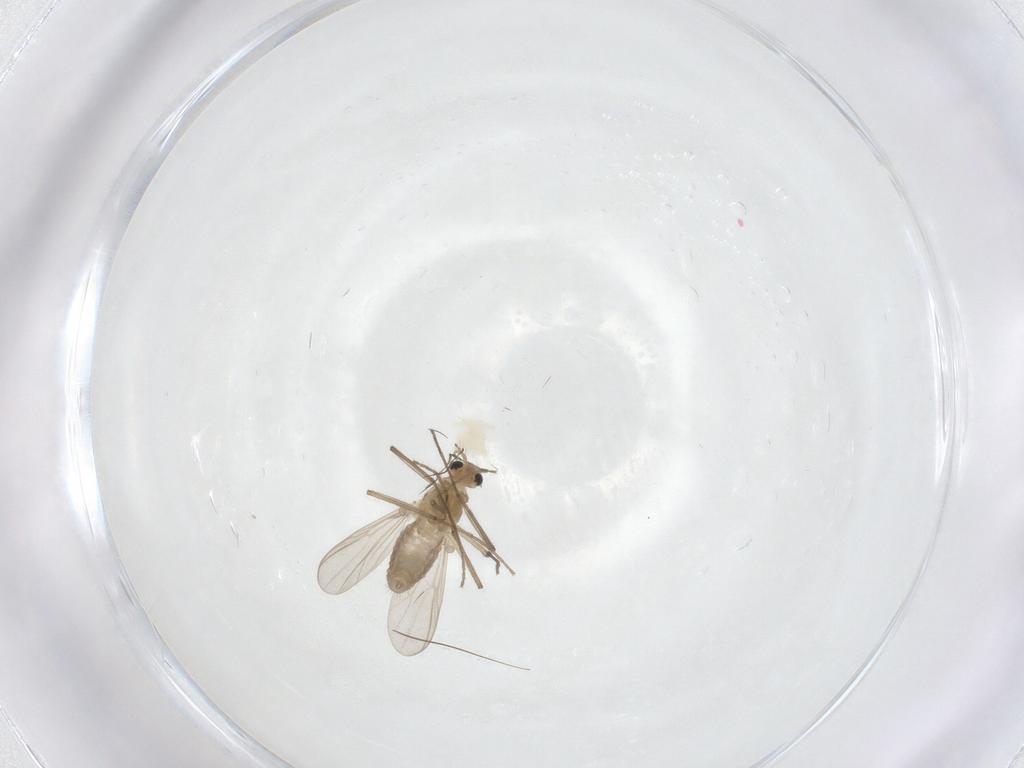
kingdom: Animalia
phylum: Arthropoda
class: Insecta
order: Diptera
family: Chironomidae
